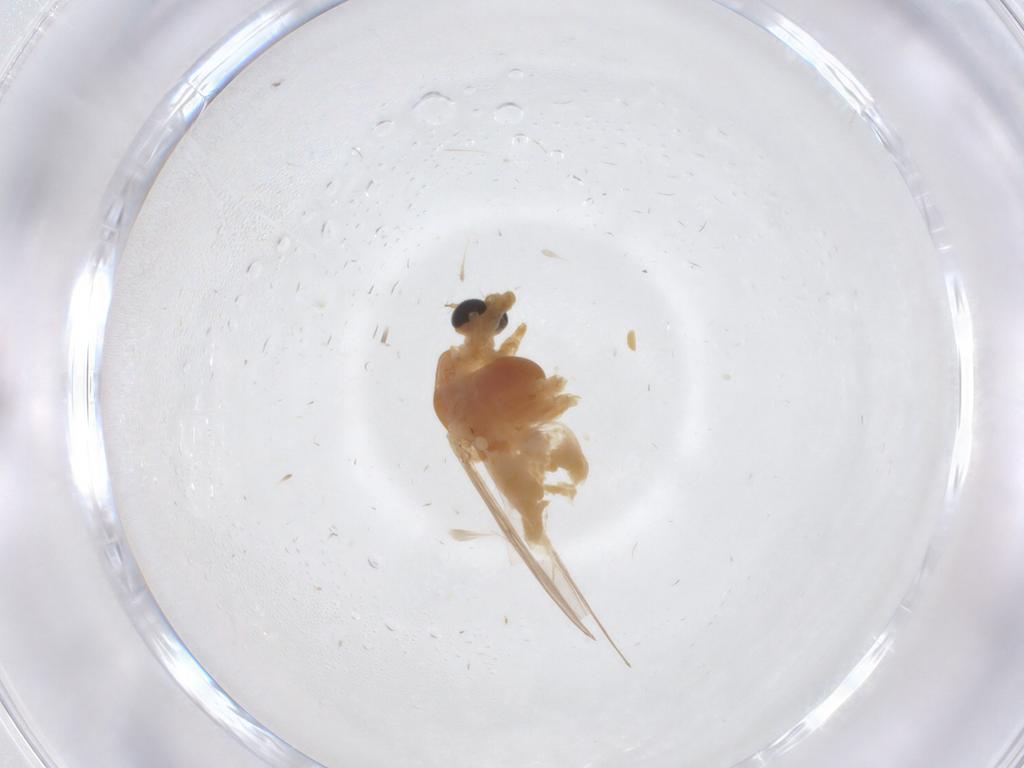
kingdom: Animalia
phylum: Arthropoda
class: Insecta
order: Diptera
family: Chironomidae
